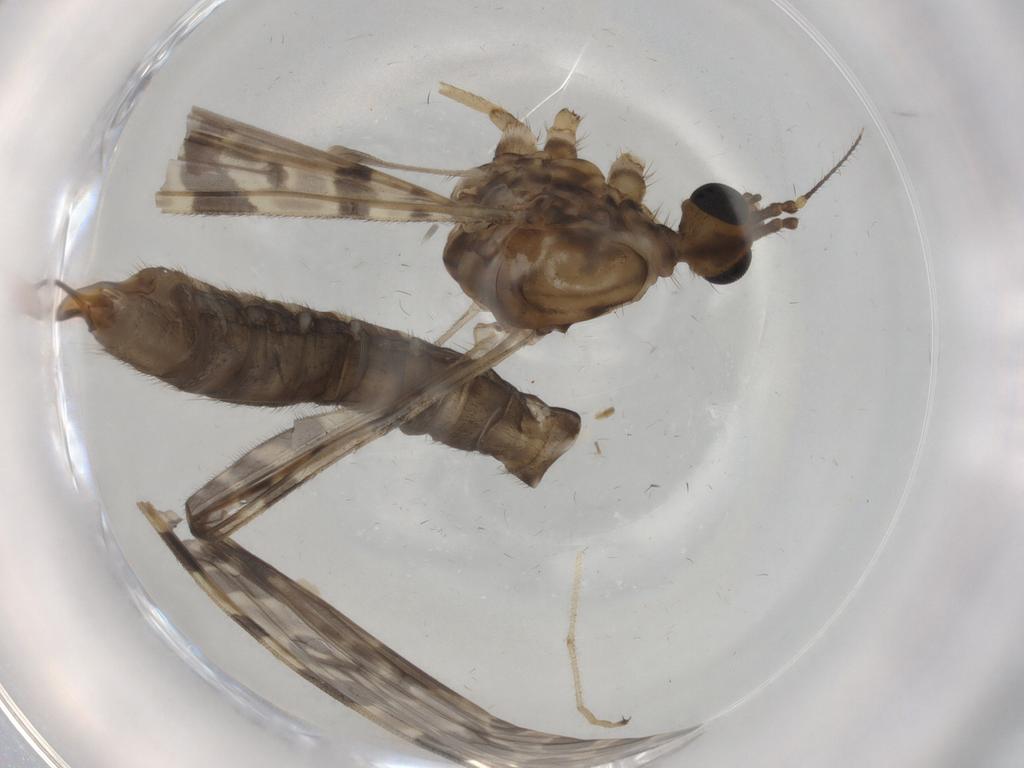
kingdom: Animalia
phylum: Arthropoda
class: Insecta
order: Diptera
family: Limoniidae
